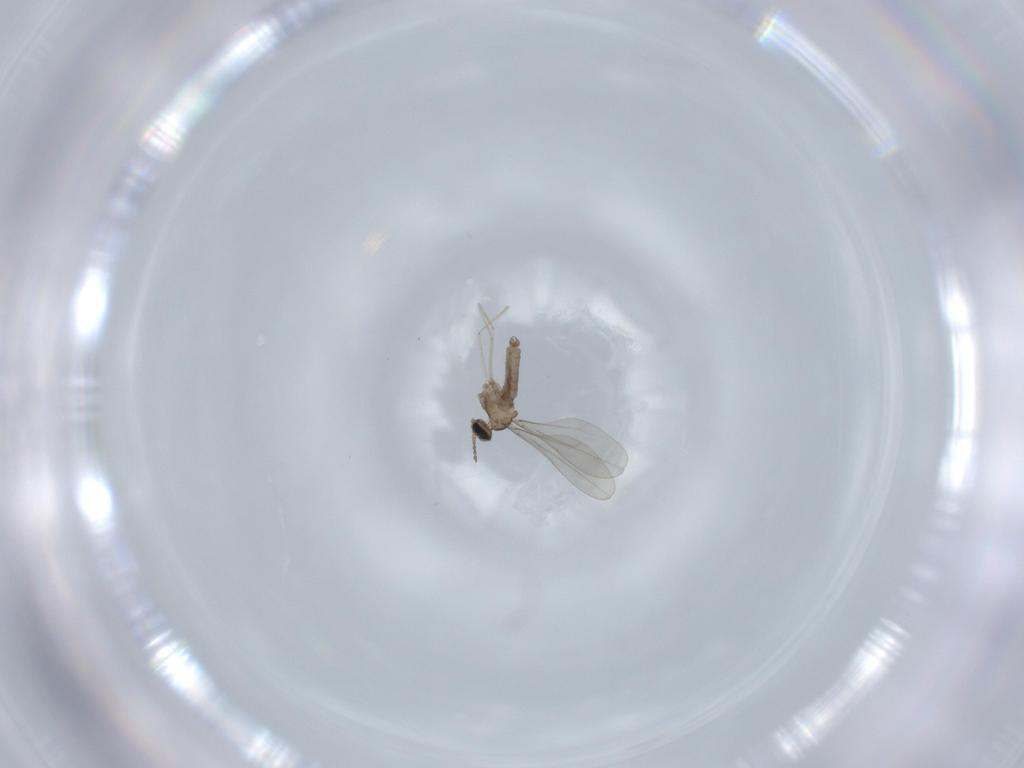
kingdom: Animalia
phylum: Arthropoda
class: Insecta
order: Diptera
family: Cecidomyiidae
